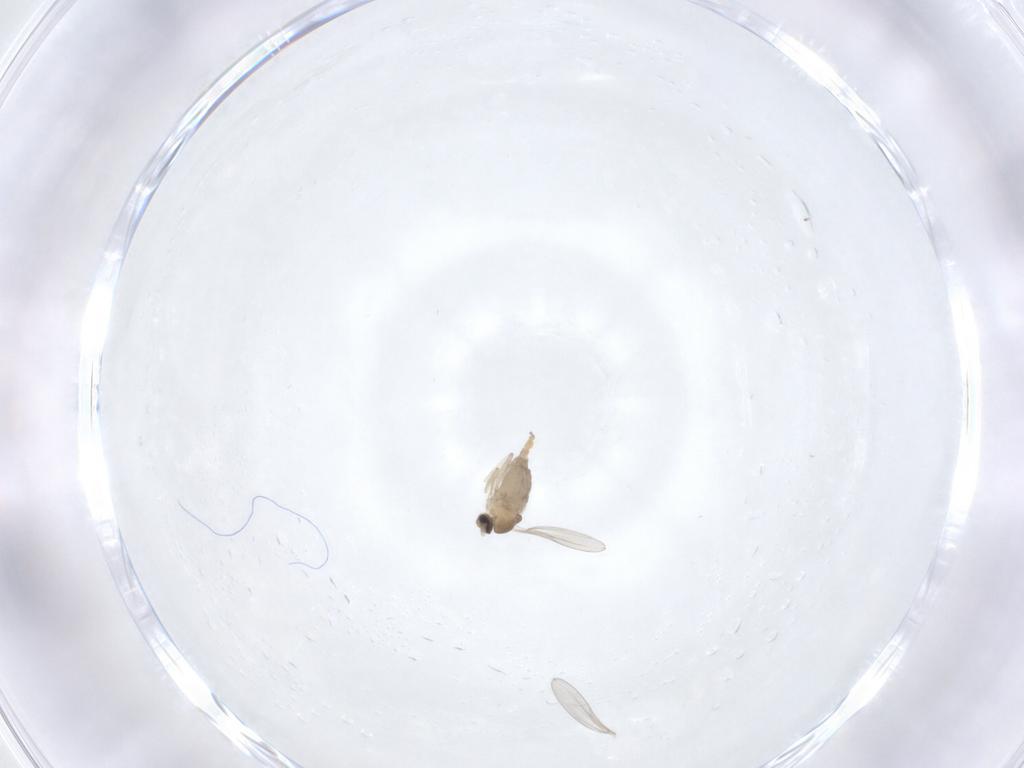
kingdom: Animalia
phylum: Arthropoda
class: Insecta
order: Diptera
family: Cecidomyiidae
